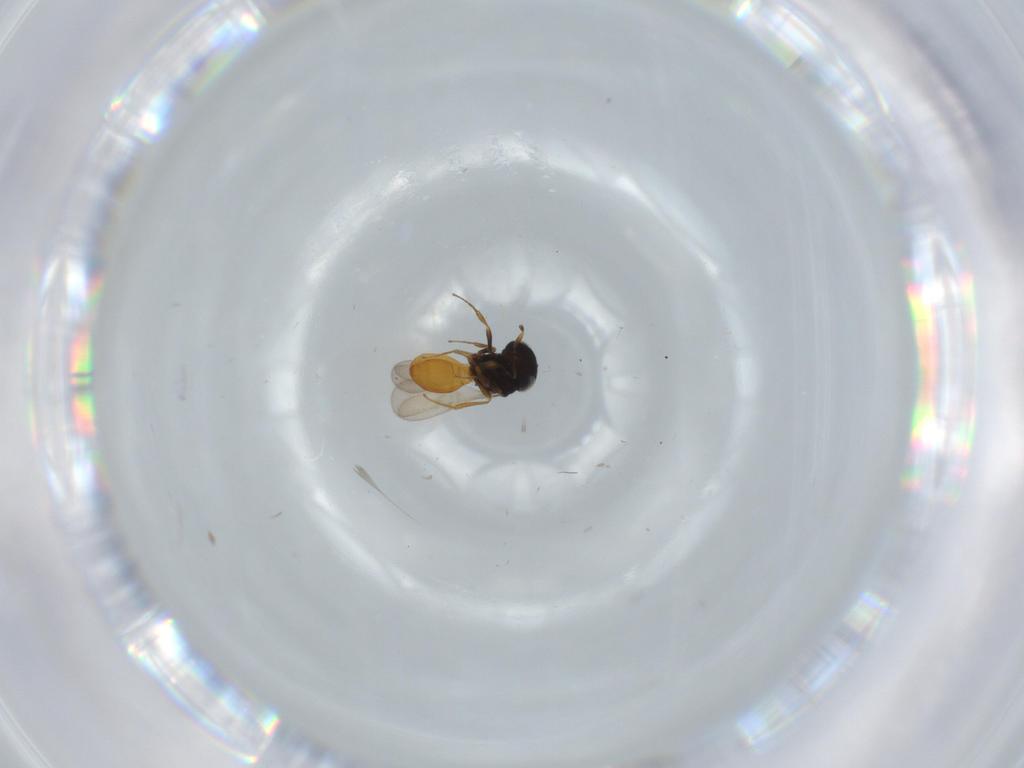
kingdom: Animalia
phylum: Arthropoda
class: Insecta
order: Hymenoptera
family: Scelionidae
